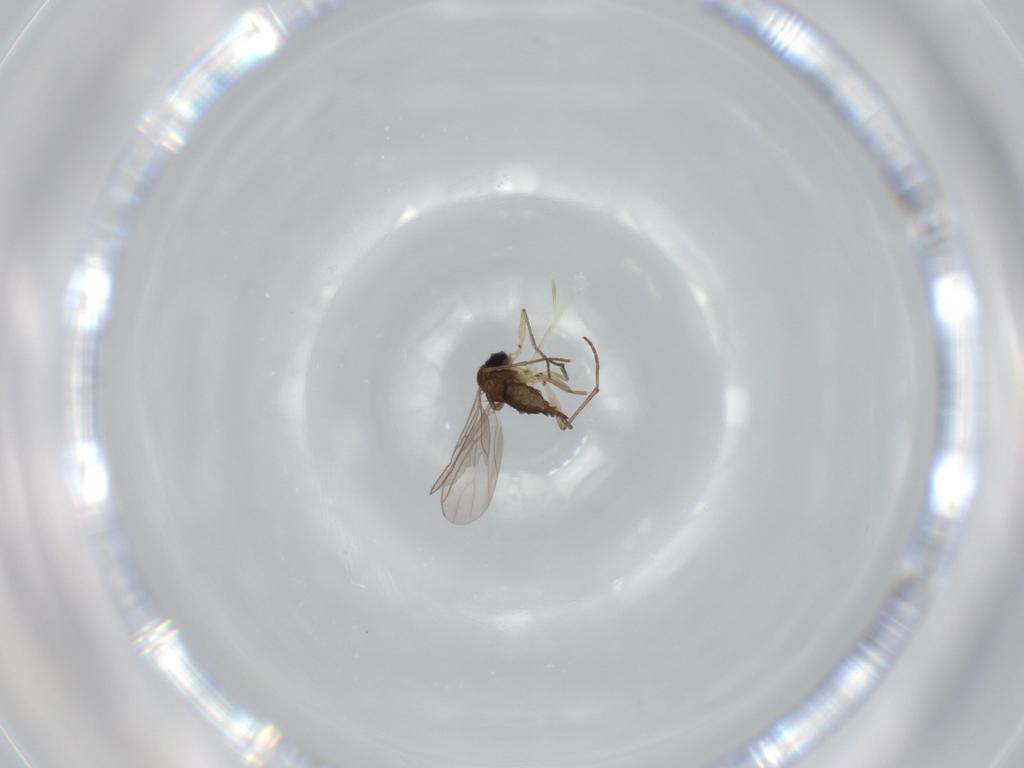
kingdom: Animalia
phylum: Arthropoda
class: Insecta
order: Diptera
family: Sciaridae
